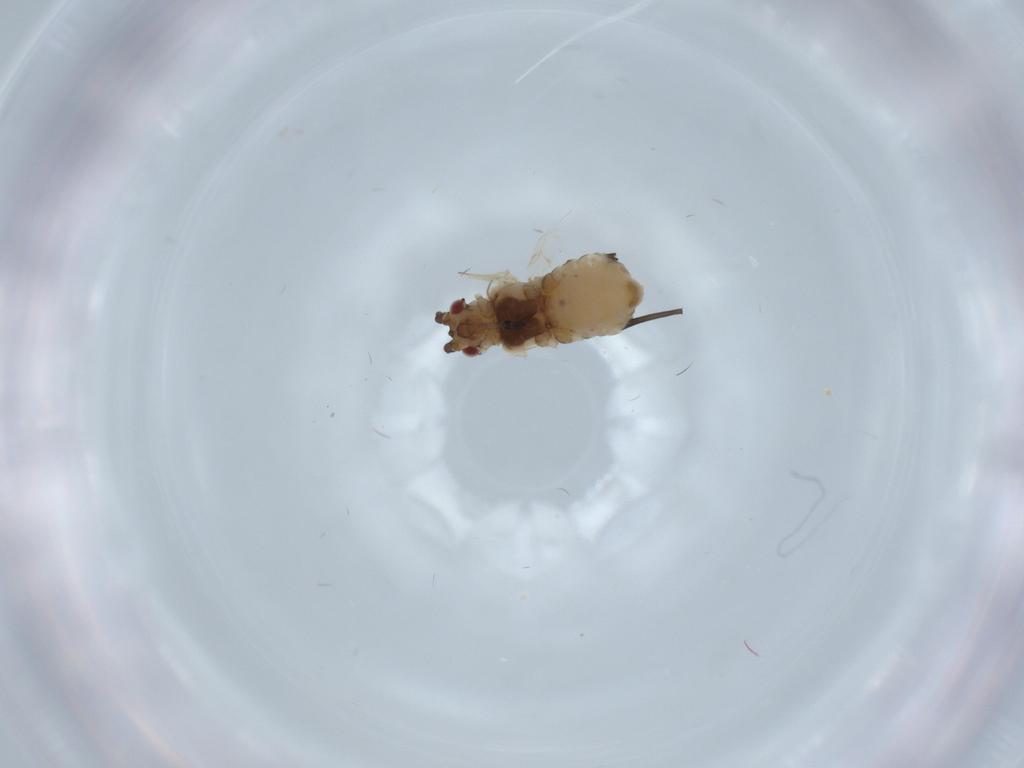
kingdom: Animalia
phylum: Arthropoda
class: Insecta
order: Hemiptera
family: Aphididae
